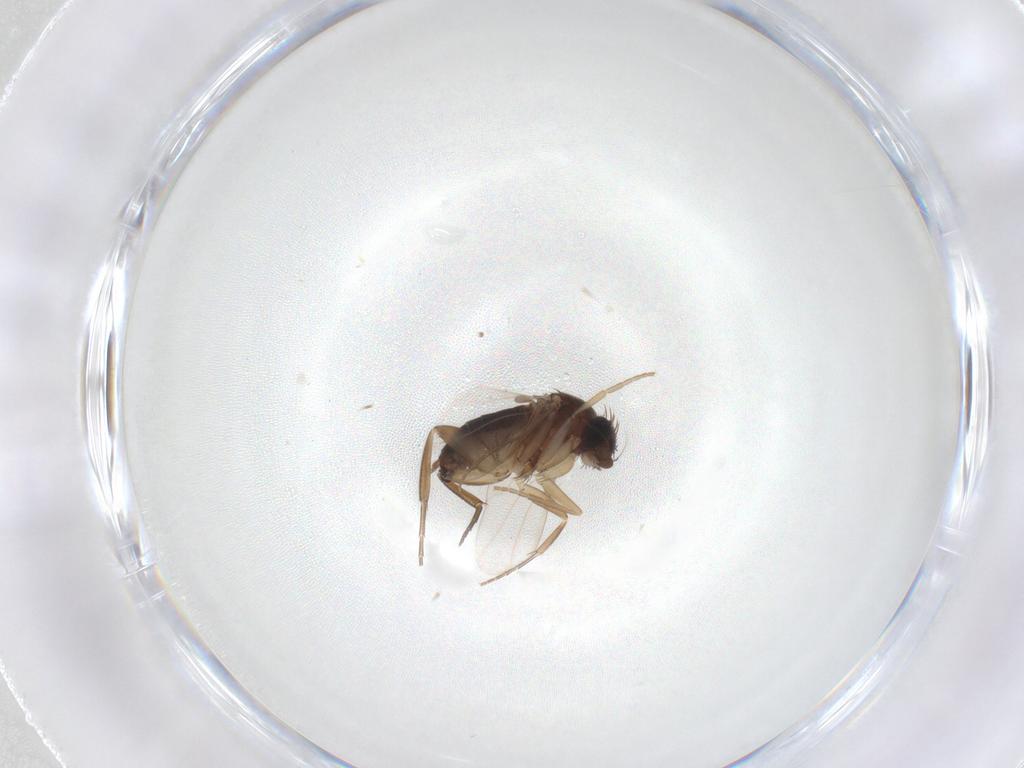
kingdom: Animalia
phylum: Arthropoda
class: Insecta
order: Diptera
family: Phoridae
